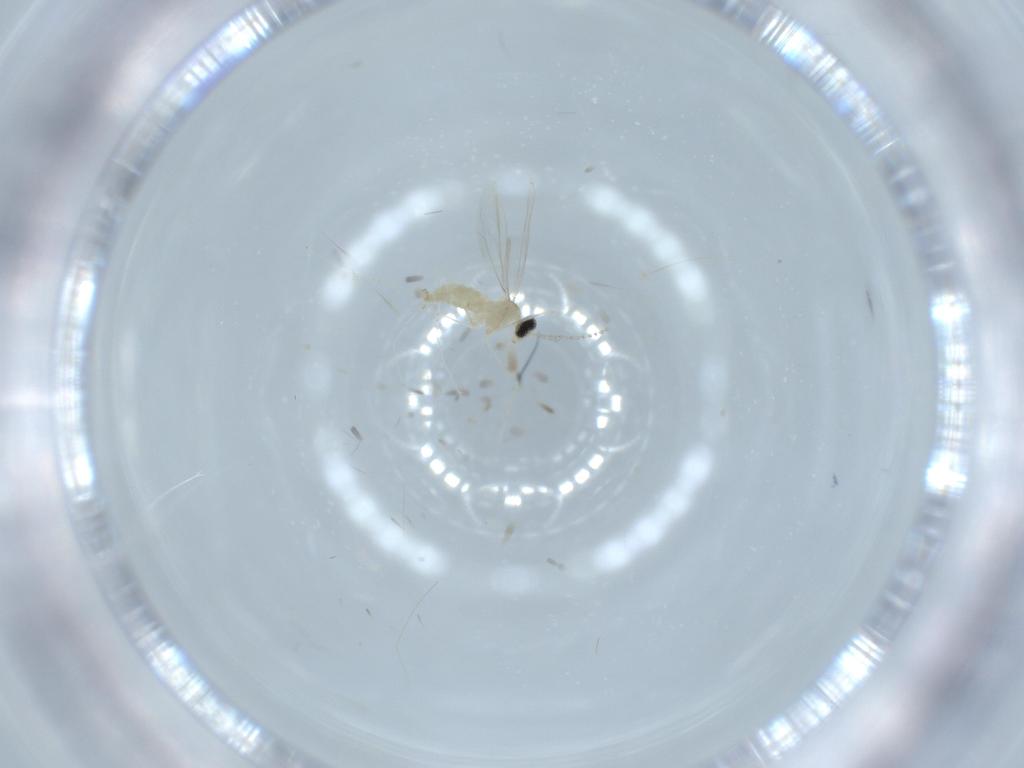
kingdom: Animalia
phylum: Arthropoda
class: Insecta
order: Diptera
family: Cecidomyiidae
